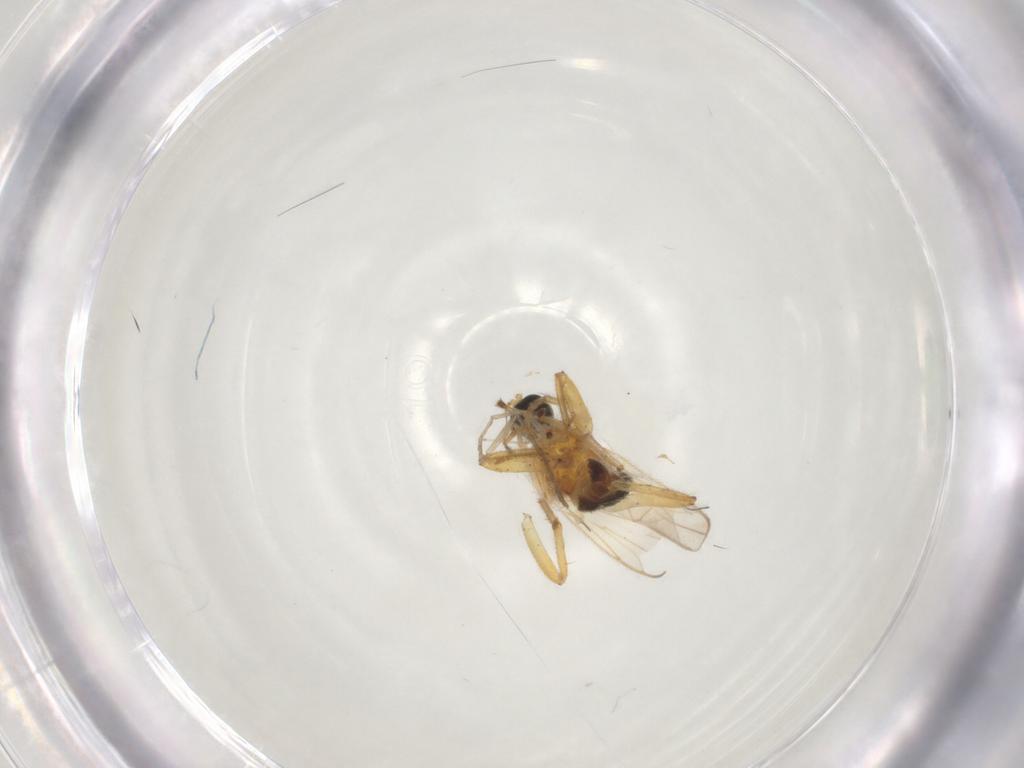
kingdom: Animalia
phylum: Arthropoda
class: Insecta
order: Diptera
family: Hybotidae
